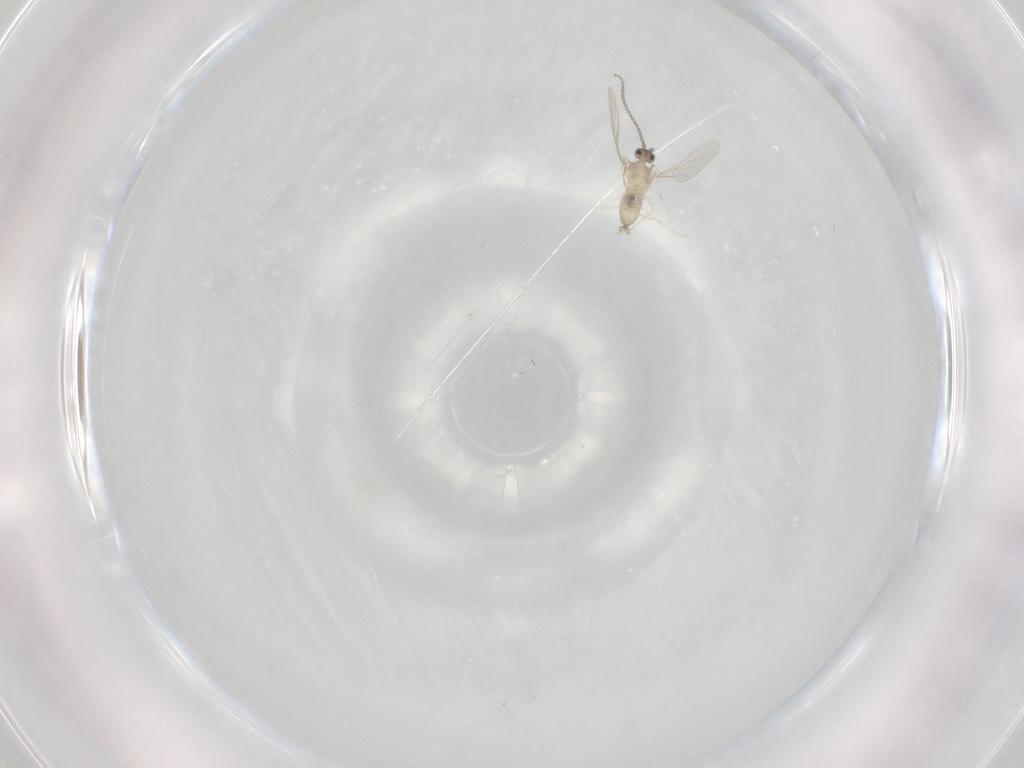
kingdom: Animalia
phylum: Arthropoda
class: Insecta
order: Diptera
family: Cecidomyiidae
